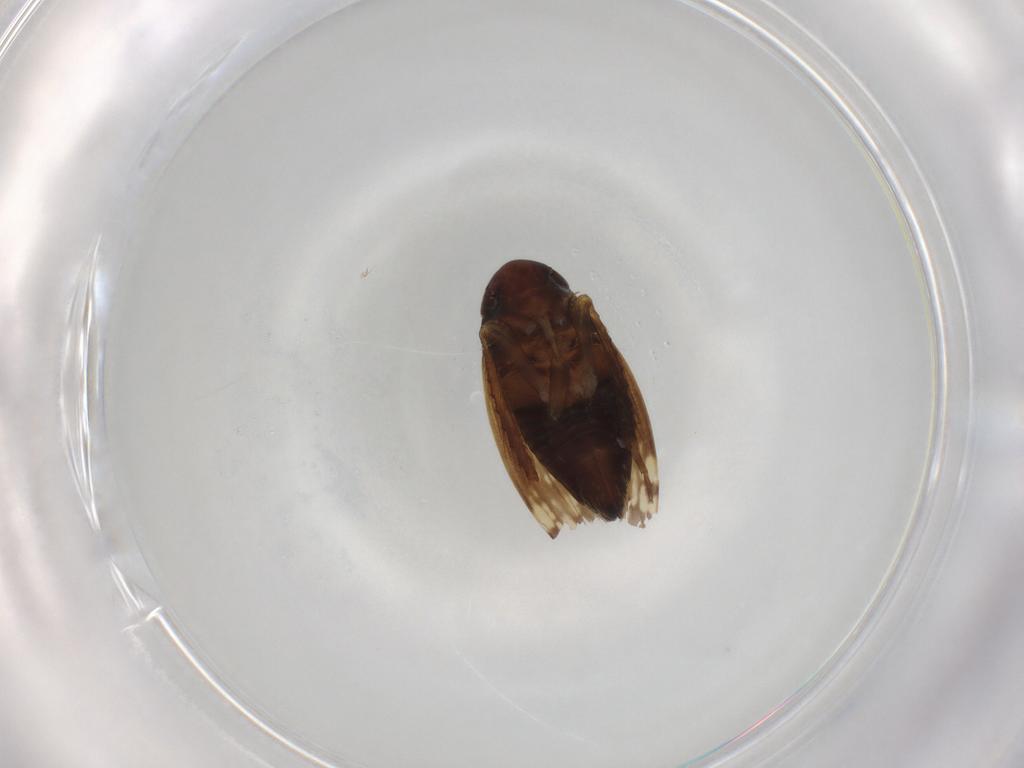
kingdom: Animalia
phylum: Arthropoda
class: Insecta
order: Hemiptera
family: Cicadellidae
